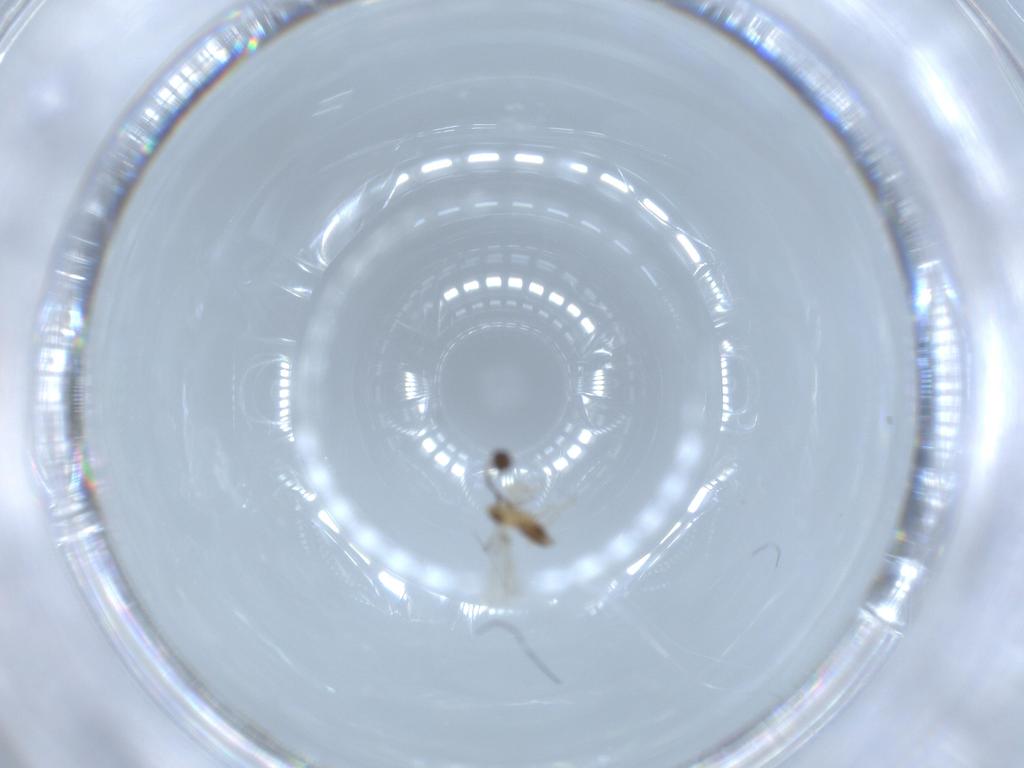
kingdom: Animalia
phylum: Arthropoda
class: Insecta
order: Hymenoptera
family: Mymaridae
